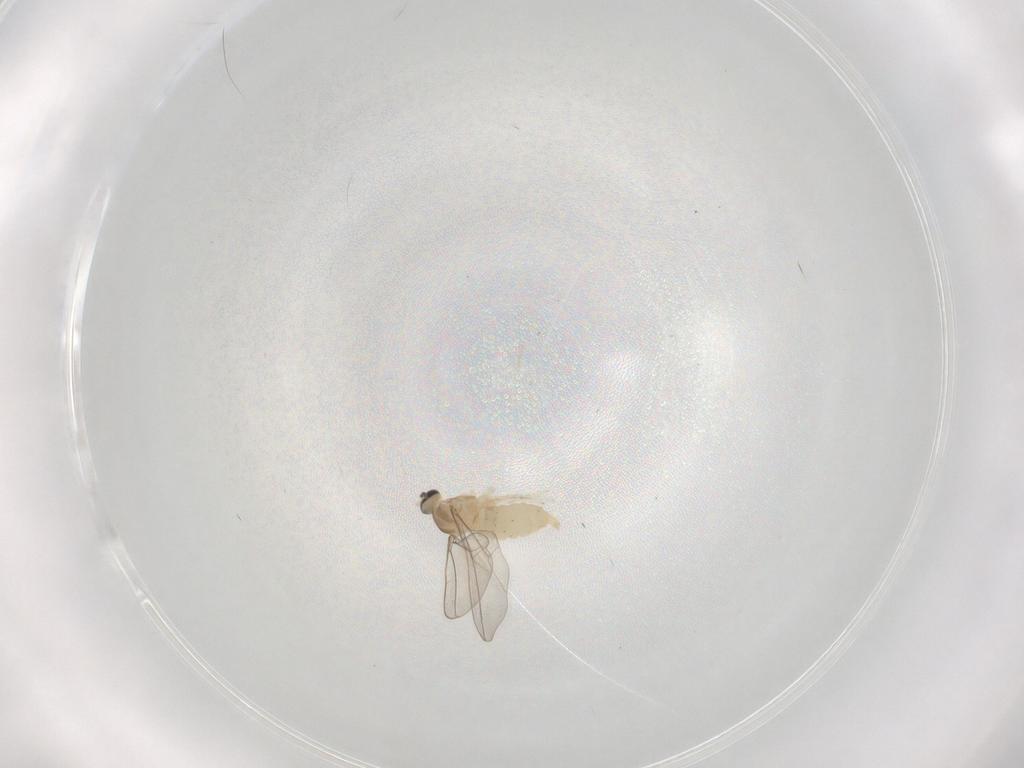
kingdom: Animalia
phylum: Arthropoda
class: Insecta
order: Diptera
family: Cecidomyiidae
